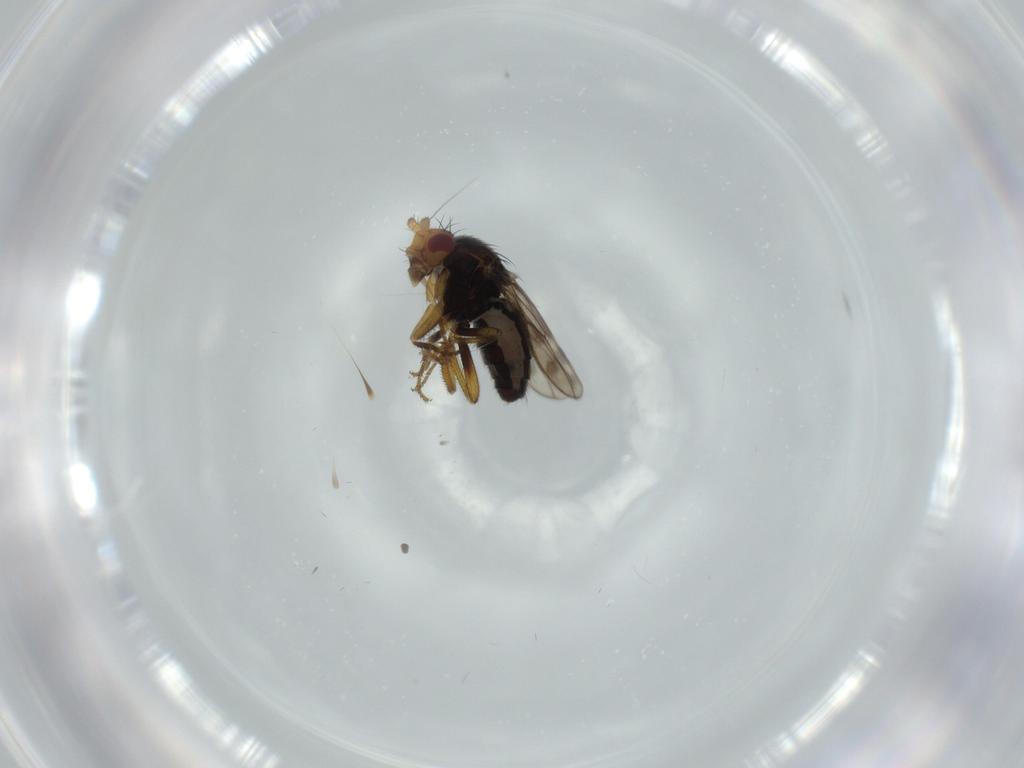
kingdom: Animalia
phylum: Arthropoda
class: Insecta
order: Diptera
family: Sphaeroceridae
